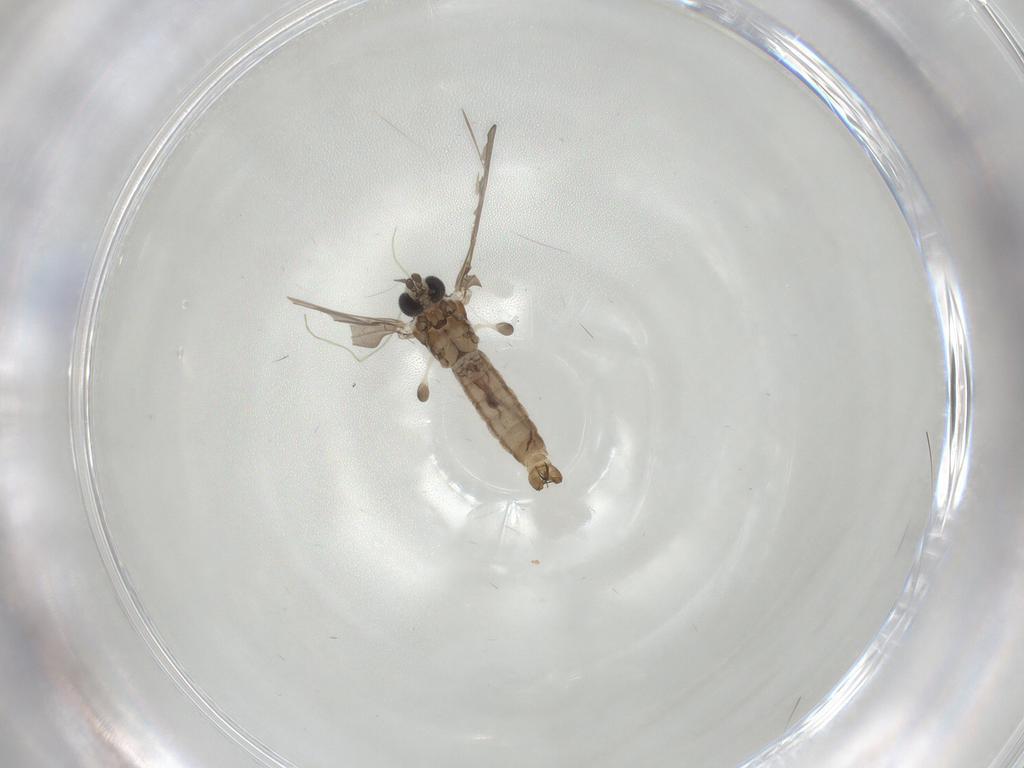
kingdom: Animalia
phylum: Arthropoda
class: Insecta
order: Diptera
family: Limoniidae
